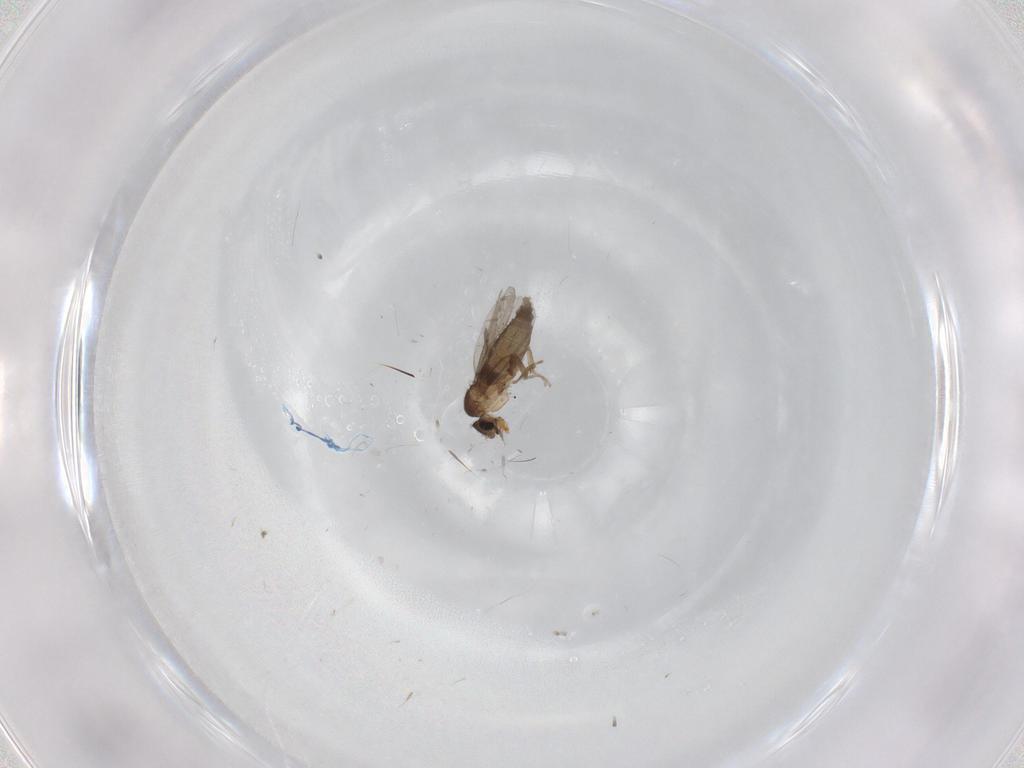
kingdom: Animalia
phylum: Arthropoda
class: Insecta
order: Diptera
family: Phoridae
